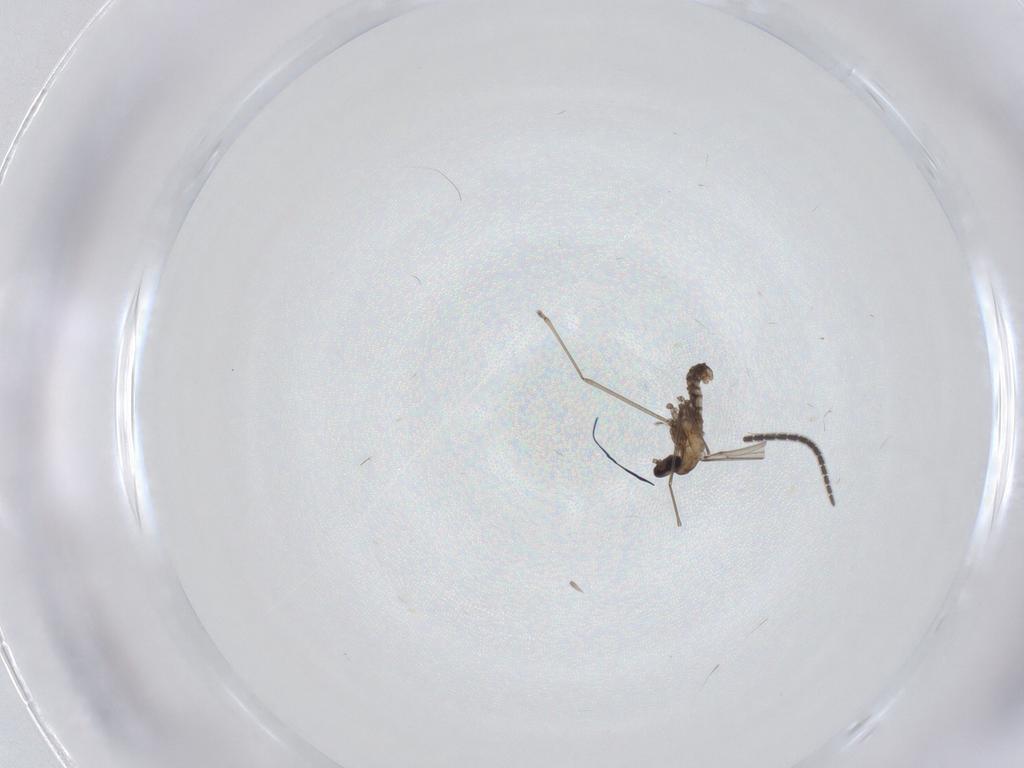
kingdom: Animalia
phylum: Arthropoda
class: Insecta
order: Diptera
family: Cecidomyiidae
